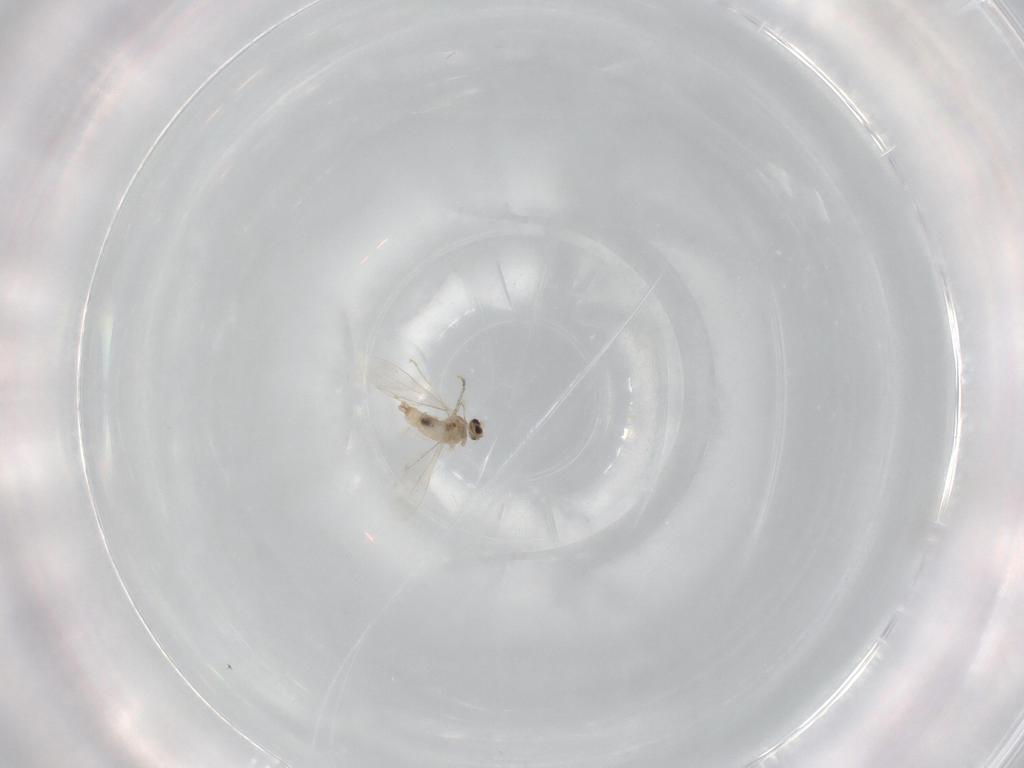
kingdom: Animalia
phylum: Arthropoda
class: Insecta
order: Diptera
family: Cecidomyiidae
